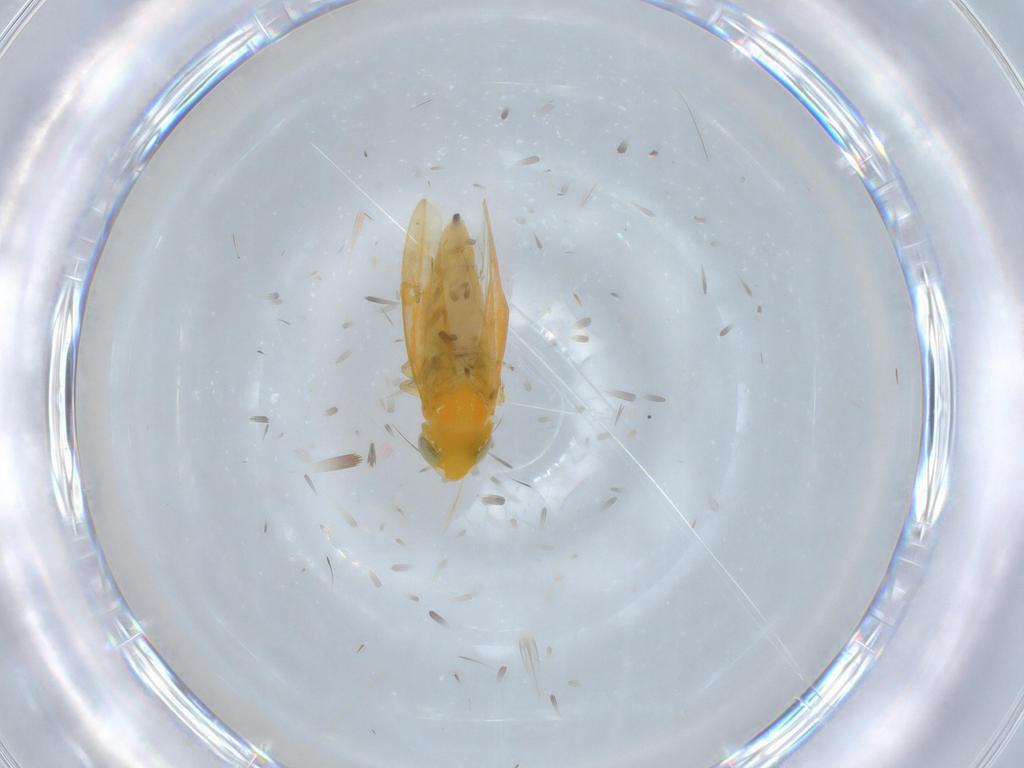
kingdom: Animalia
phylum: Arthropoda
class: Insecta
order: Hemiptera
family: Cicadellidae
